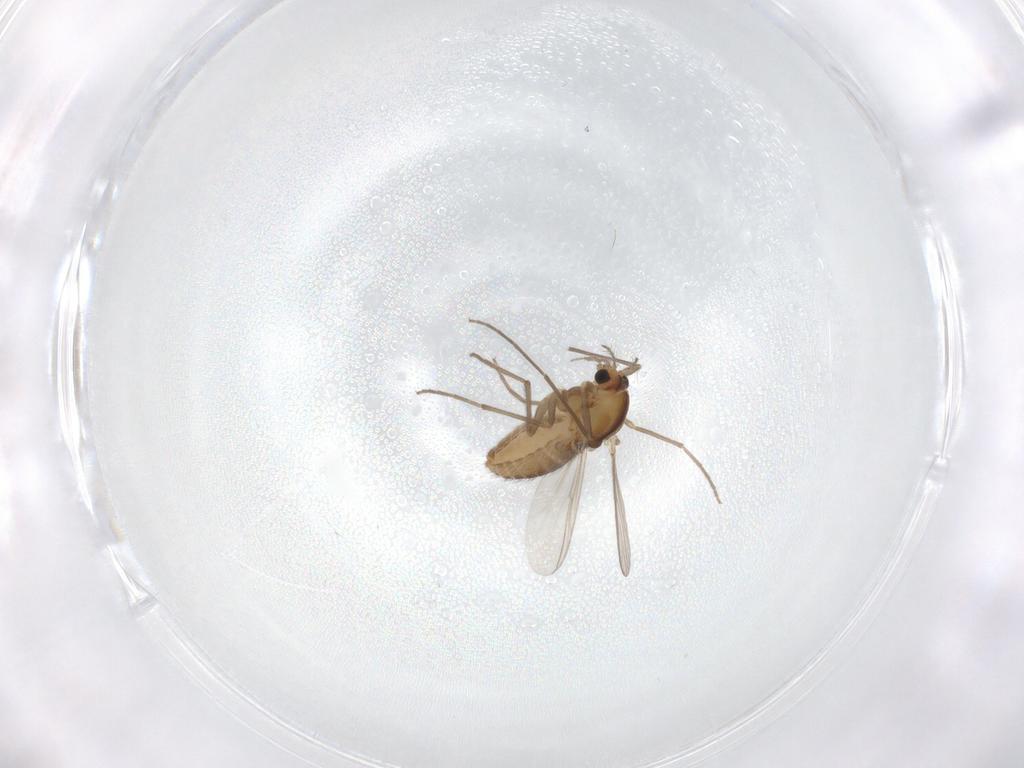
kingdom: Animalia
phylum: Arthropoda
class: Insecta
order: Diptera
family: Chironomidae
